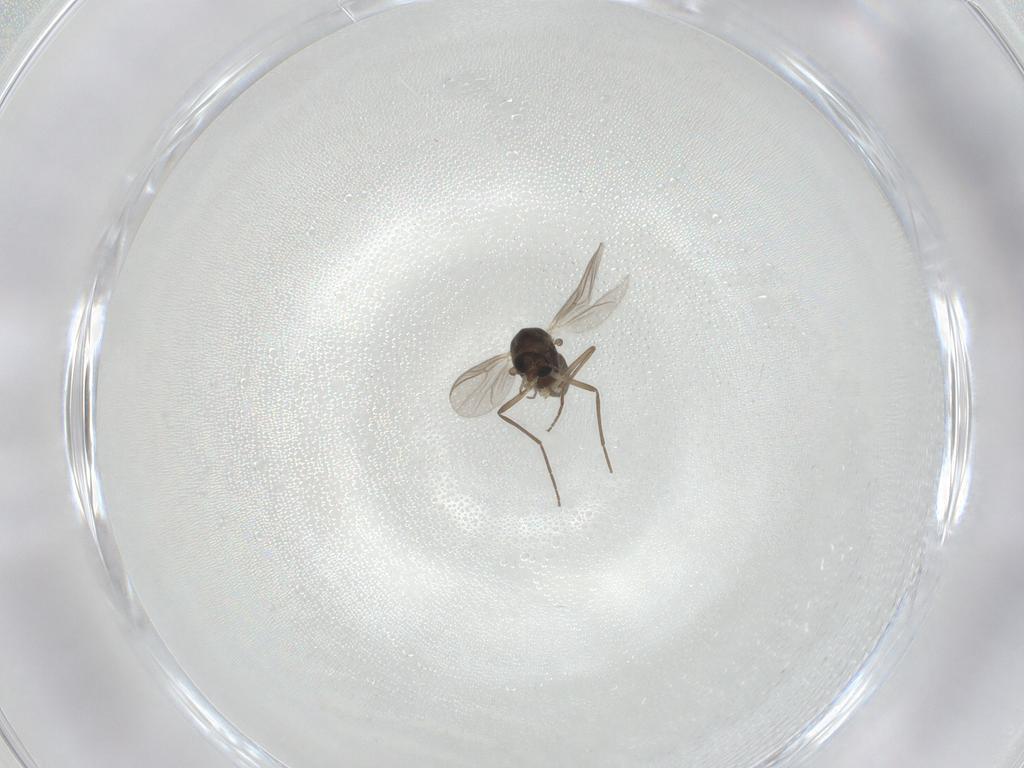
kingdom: Animalia
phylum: Arthropoda
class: Insecta
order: Diptera
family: Chironomidae
